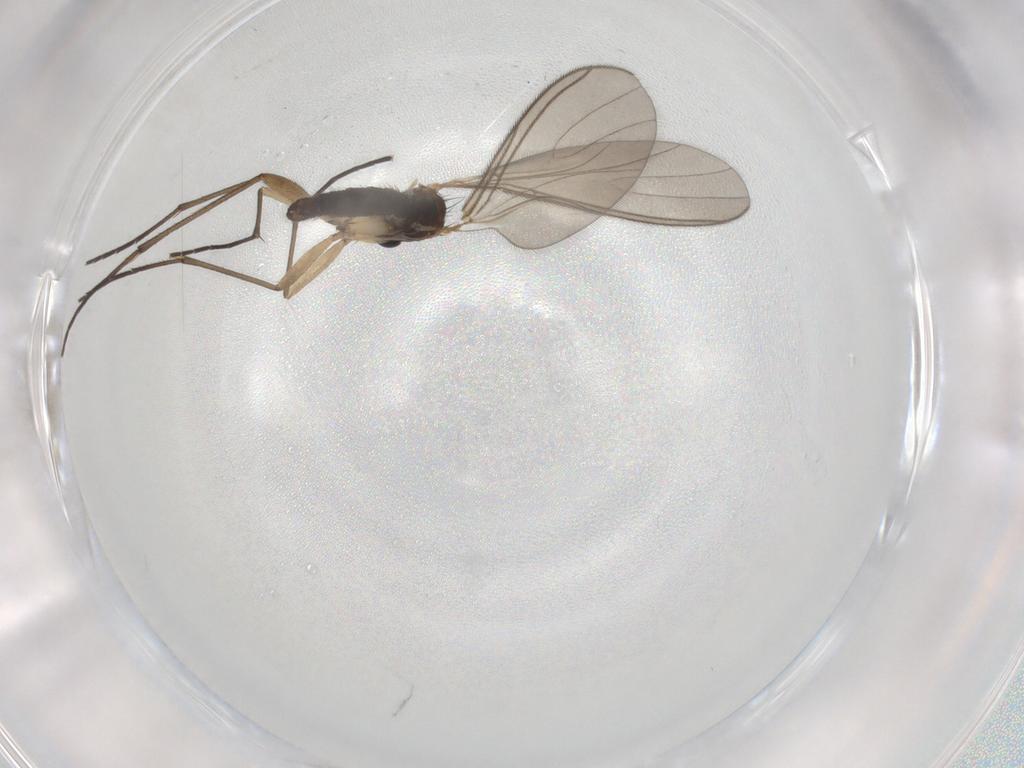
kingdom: Animalia
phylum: Arthropoda
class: Insecta
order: Diptera
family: Sciaridae
